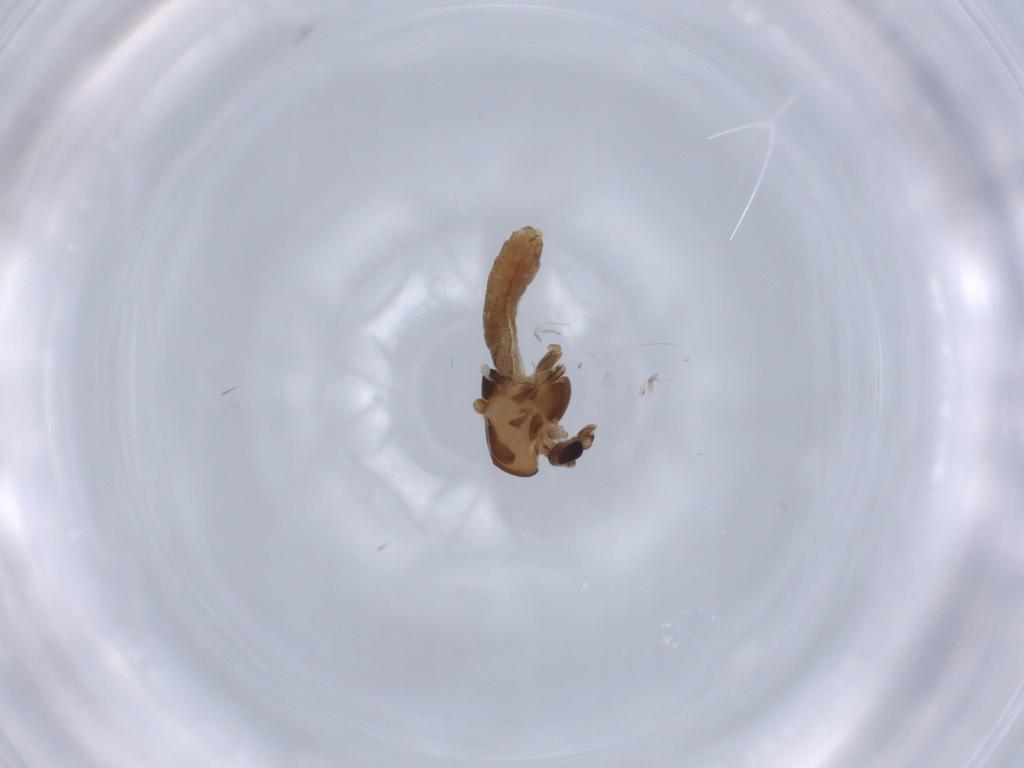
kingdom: Animalia
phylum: Arthropoda
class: Insecta
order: Diptera
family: Chironomidae
